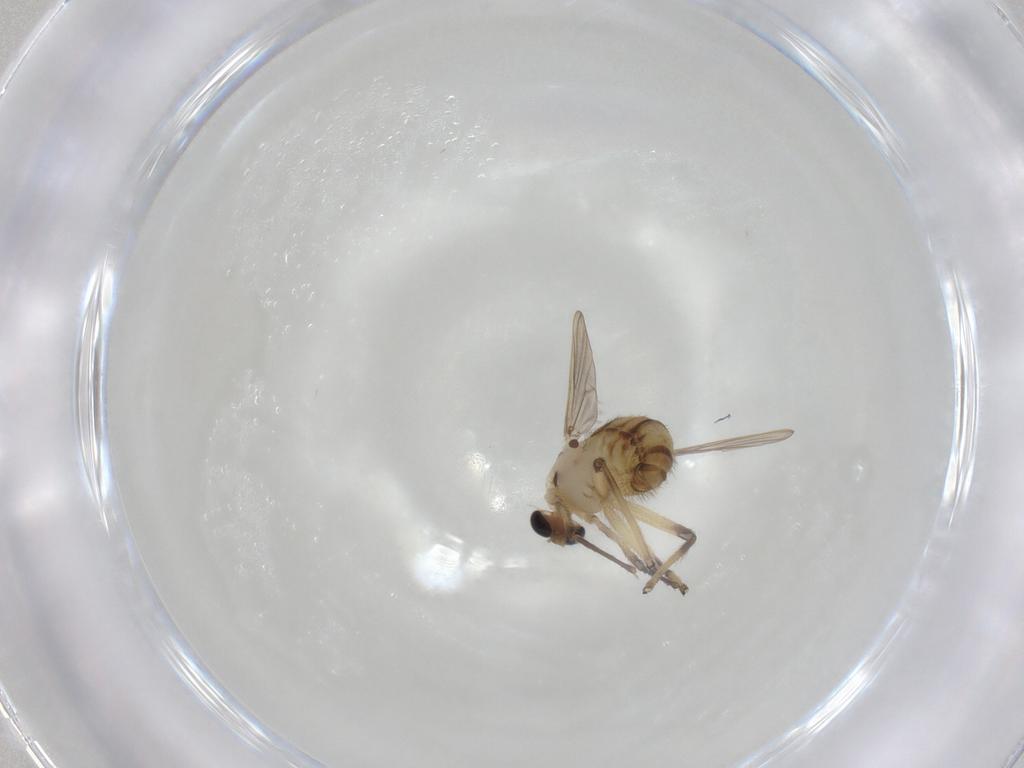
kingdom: Animalia
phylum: Arthropoda
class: Insecta
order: Diptera
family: Chironomidae
